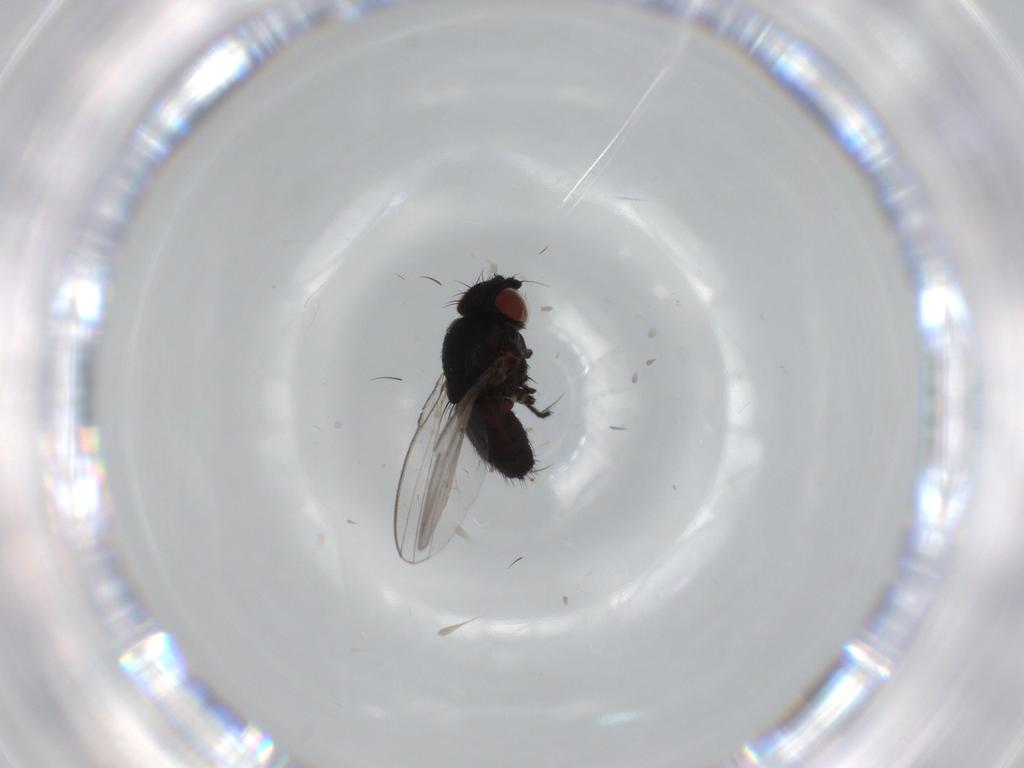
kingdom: Animalia
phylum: Arthropoda
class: Insecta
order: Diptera
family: Milichiidae
